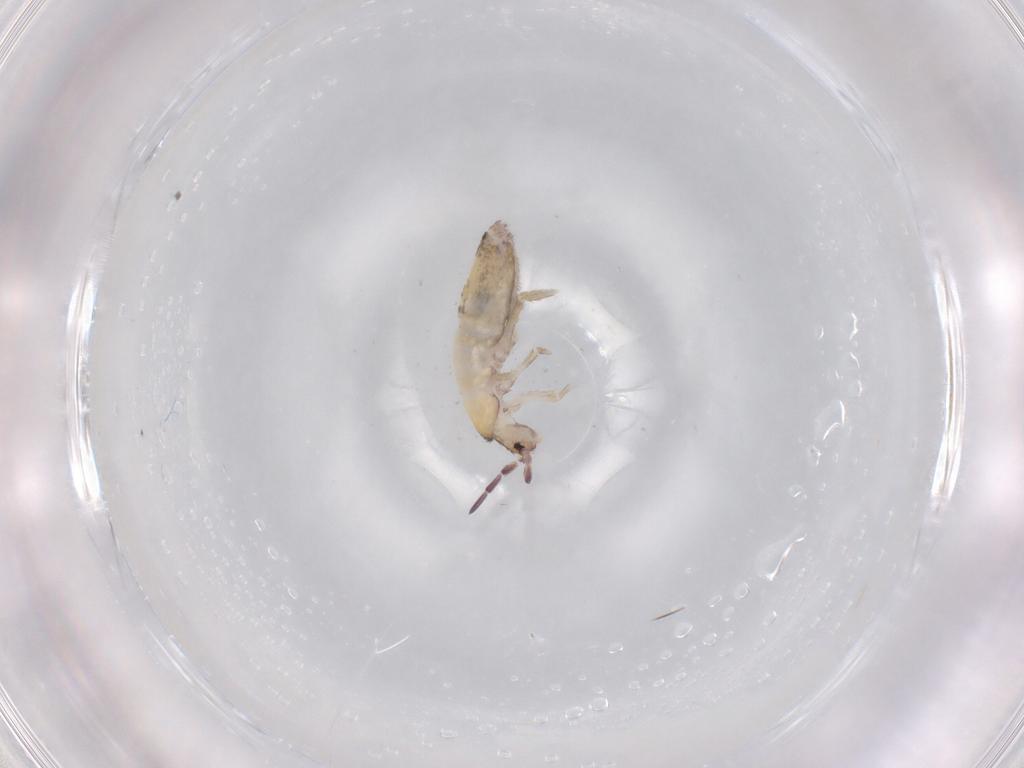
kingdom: Animalia
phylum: Arthropoda
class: Collembola
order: Entomobryomorpha
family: Entomobryidae
